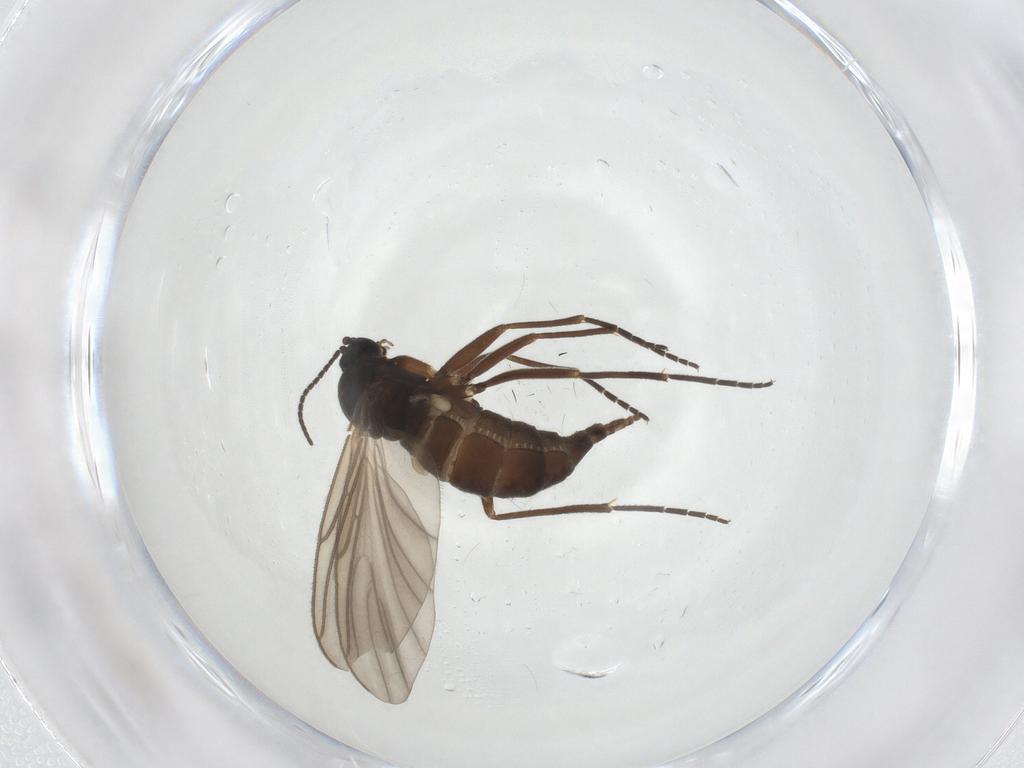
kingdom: Animalia
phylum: Arthropoda
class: Insecta
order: Diptera
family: Sciaridae
